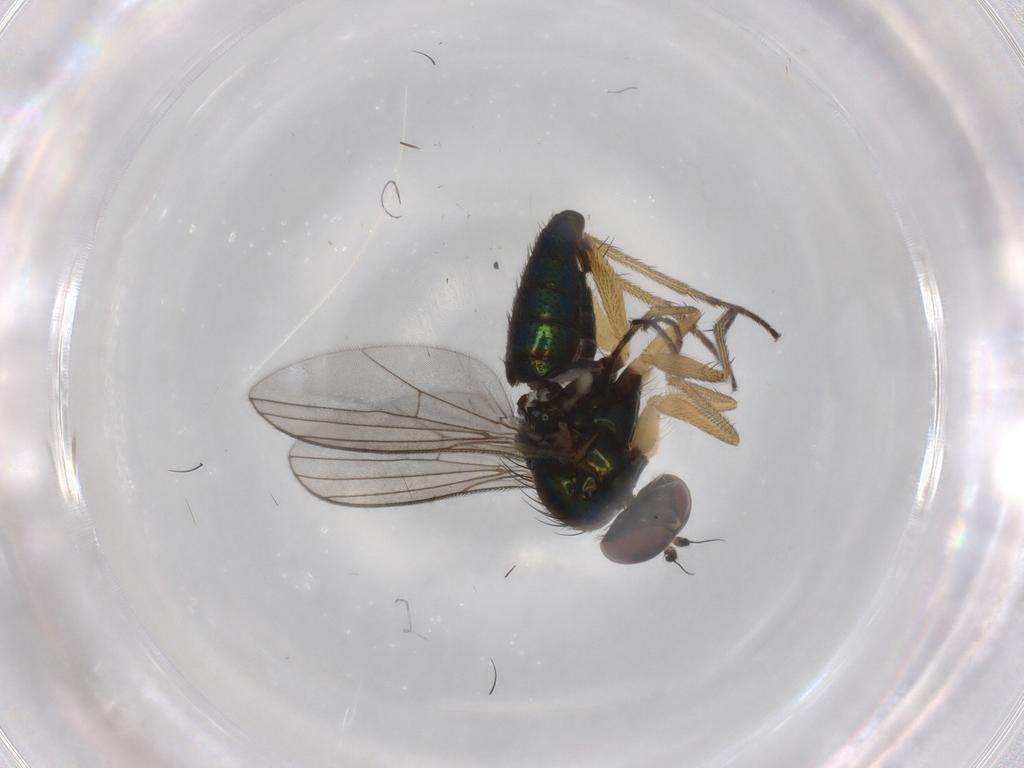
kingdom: Animalia
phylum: Arthropoda
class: Insecta
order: Diptera
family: Dolichopodidae
